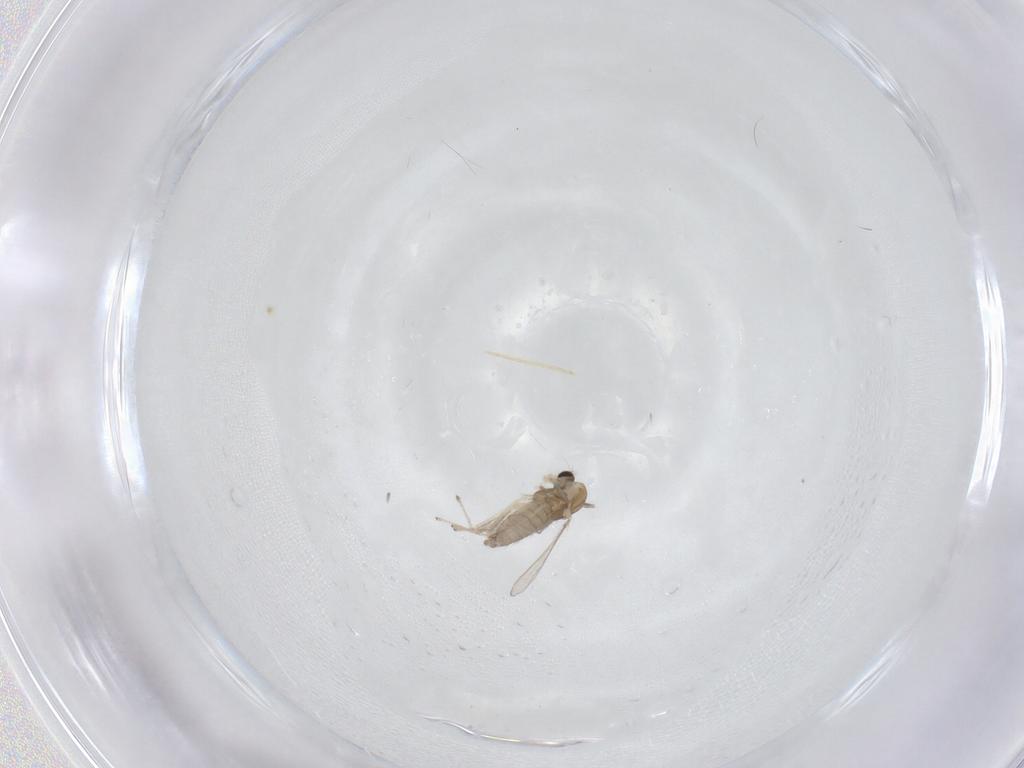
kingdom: Animalia
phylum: Arthropoda
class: Insecta
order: Diptera
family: Chironomidae
